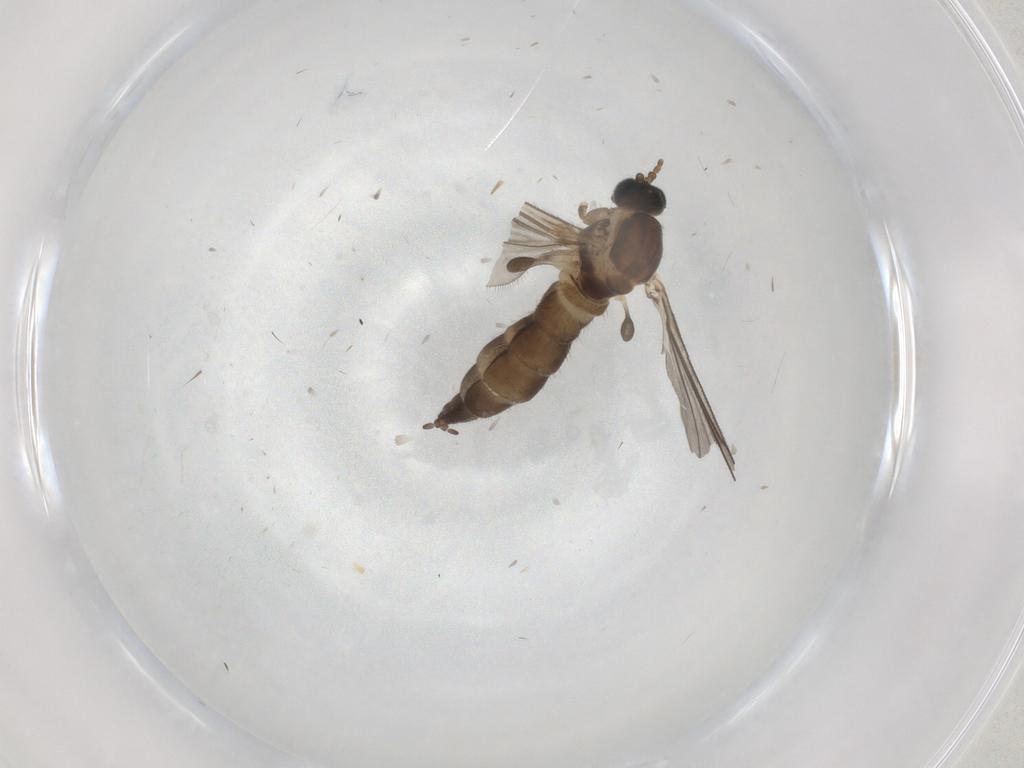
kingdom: Animalia
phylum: Arthropoda
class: Insecta
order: Diptera
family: Sciaridae
